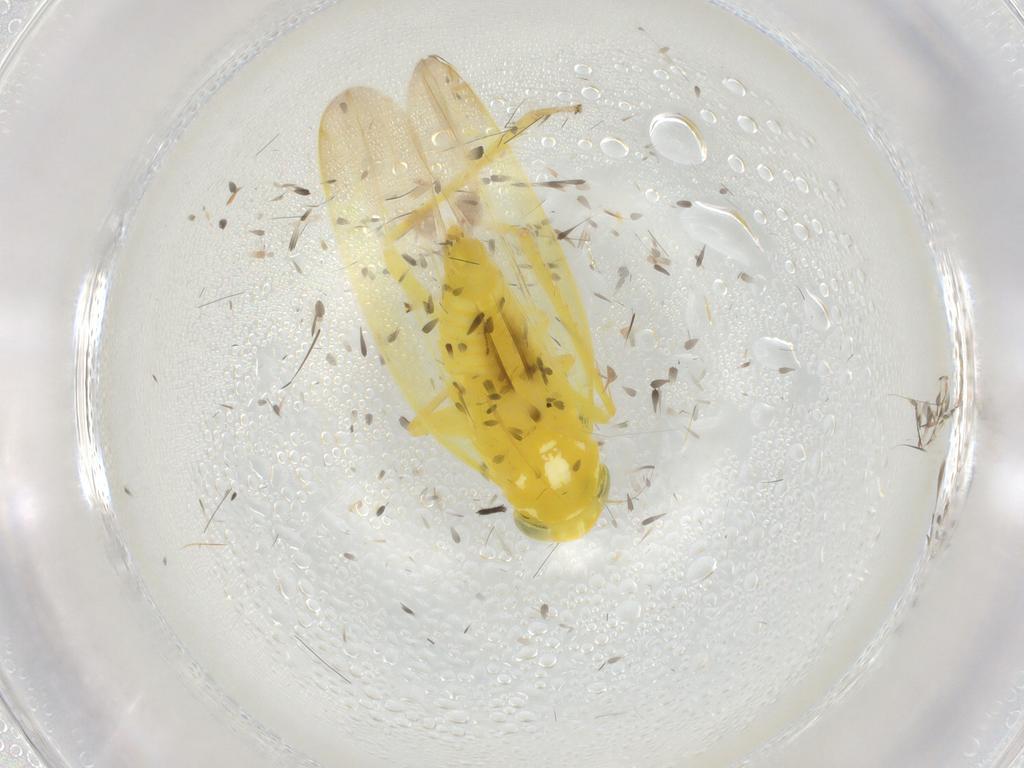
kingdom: Animalia
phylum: Arthropoda
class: Insecta
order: Hemiptera
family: Cicadellidae
